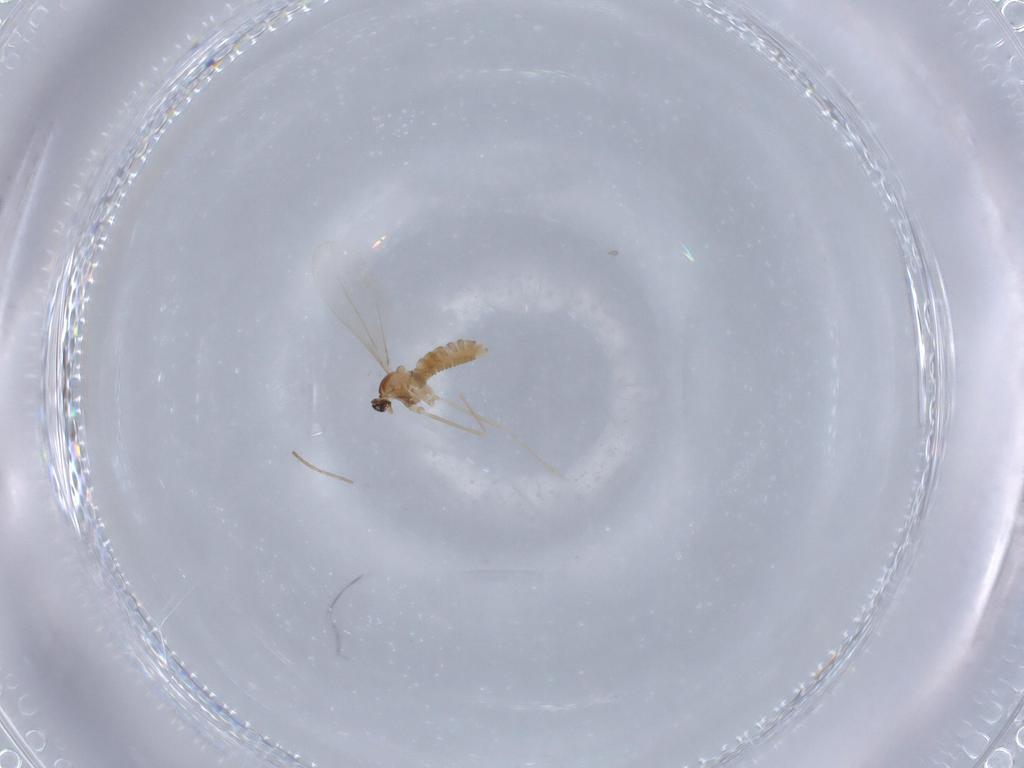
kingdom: Animalia
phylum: Arthropoda
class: Insecta
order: Diptera
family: Cecidomyiidae
